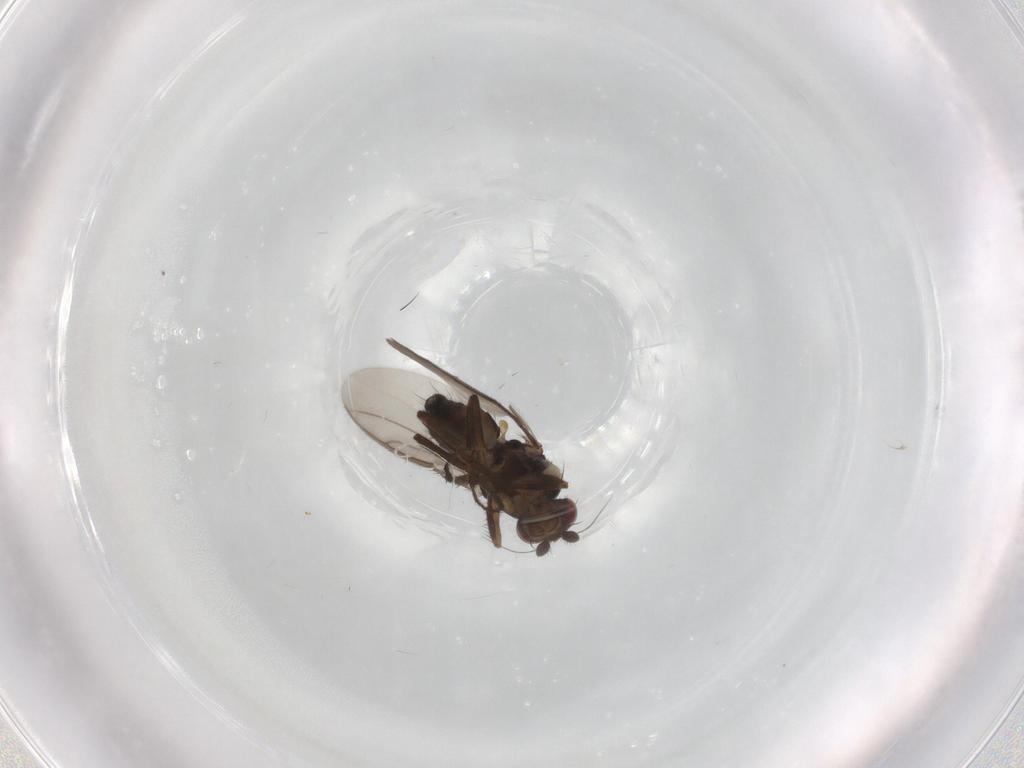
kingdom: Animalia
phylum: Arthropoda
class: Insecta
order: Diptera
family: Sphaeroceridae
